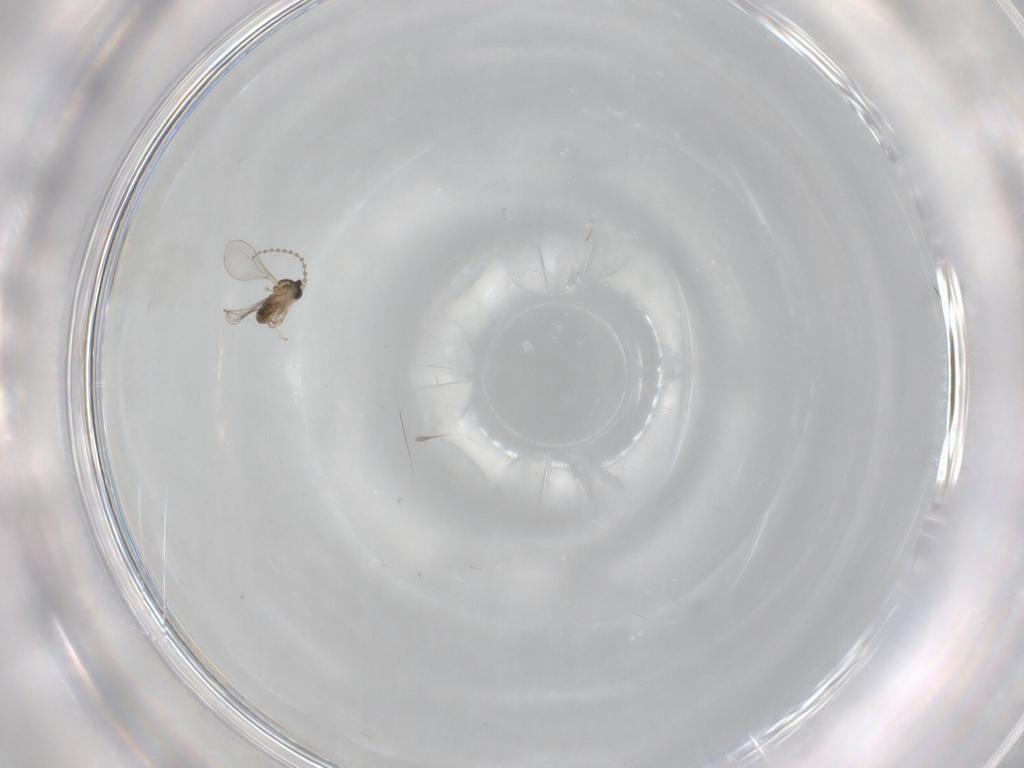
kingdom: Animalia
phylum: Arthropoda
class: Insecta
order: Diptera
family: Cecidomyiidae
